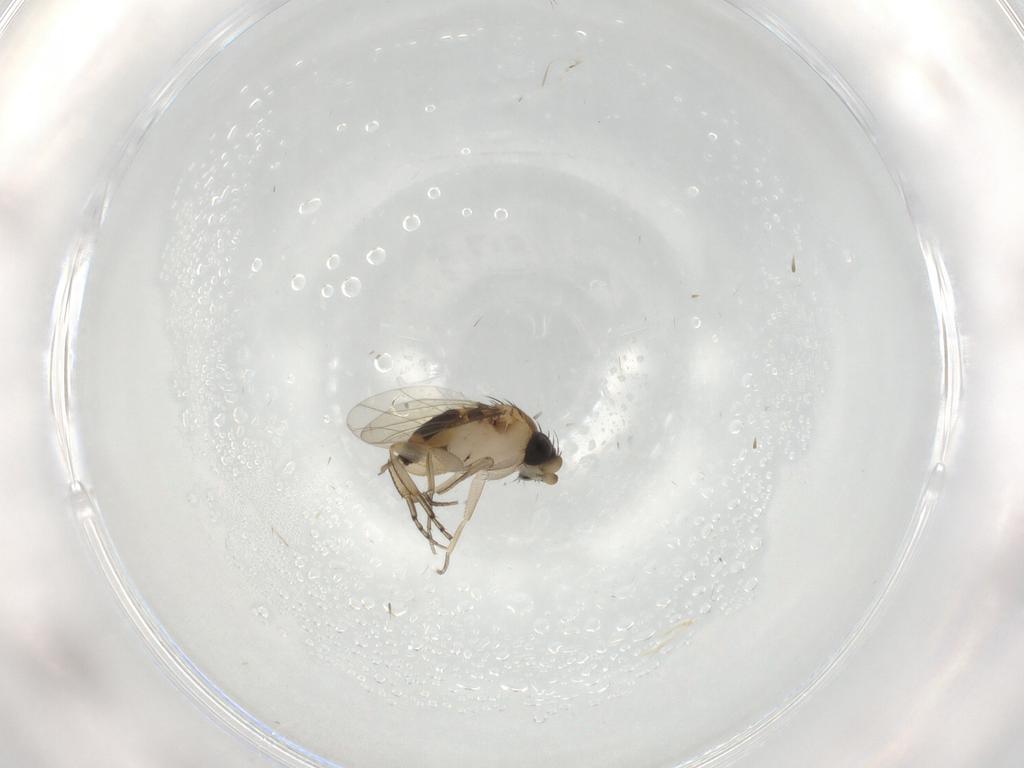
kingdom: Animalia
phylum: Arthropoda
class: Insecta
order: Diptera
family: Phoridae
